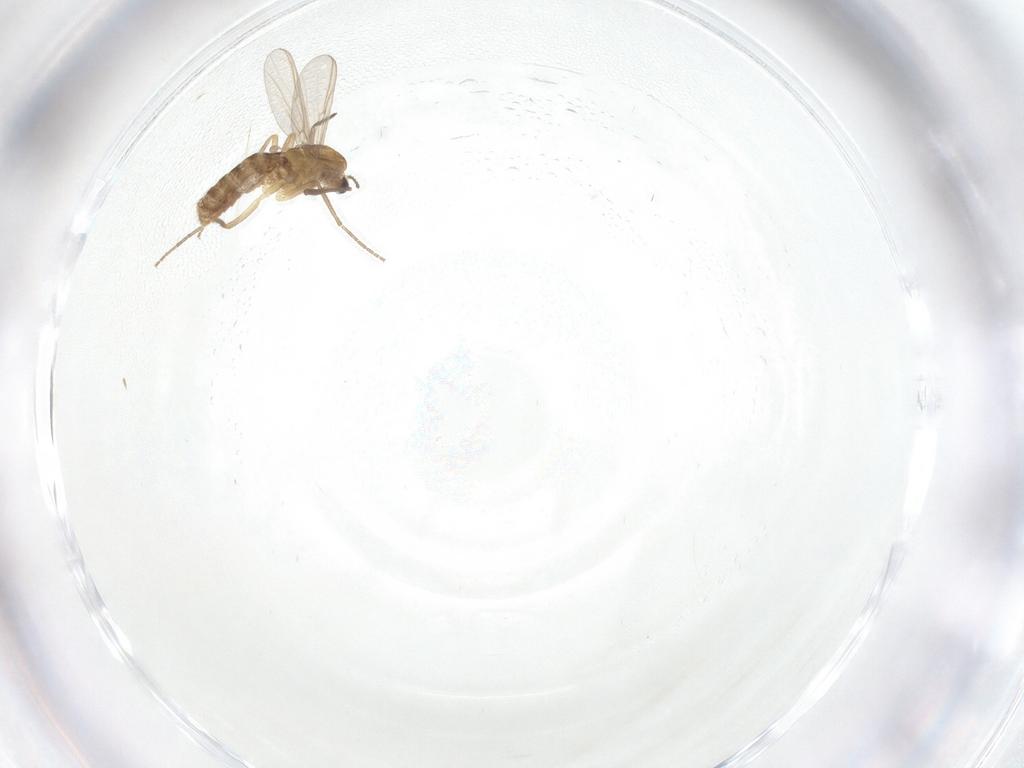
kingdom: Animalia
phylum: Arthropoda
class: Insecta
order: Diptera
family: Chironomidae
